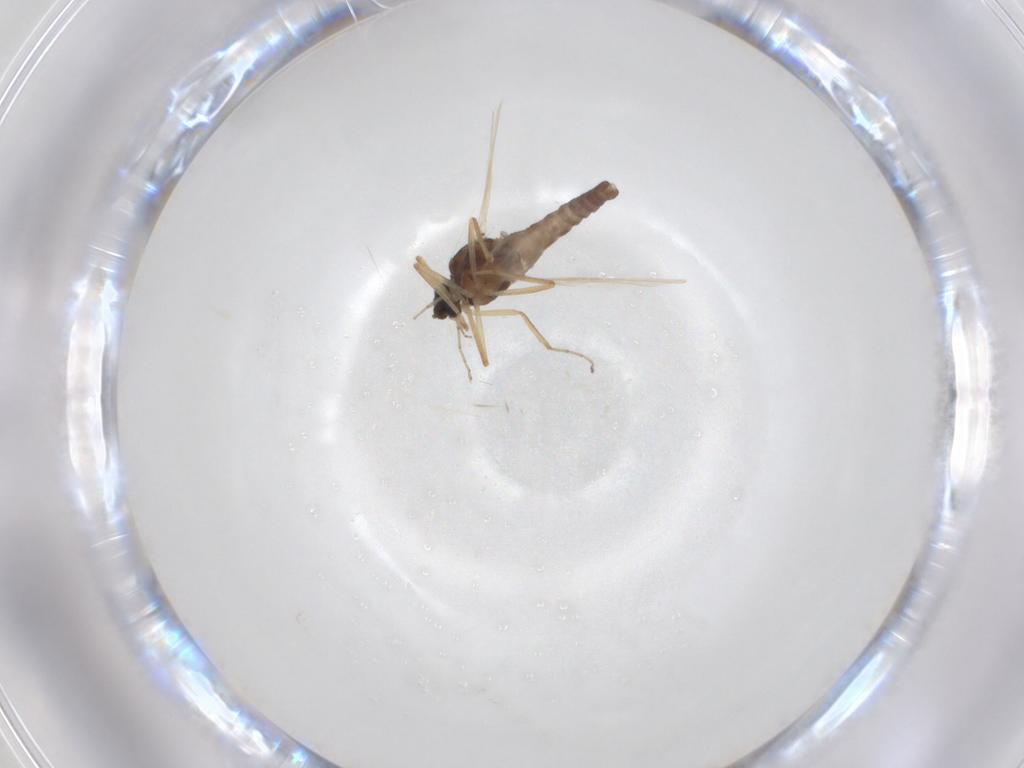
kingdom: Animalia
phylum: Arthropoda
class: Insecta
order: Diptera
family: Ceratopogonidae
